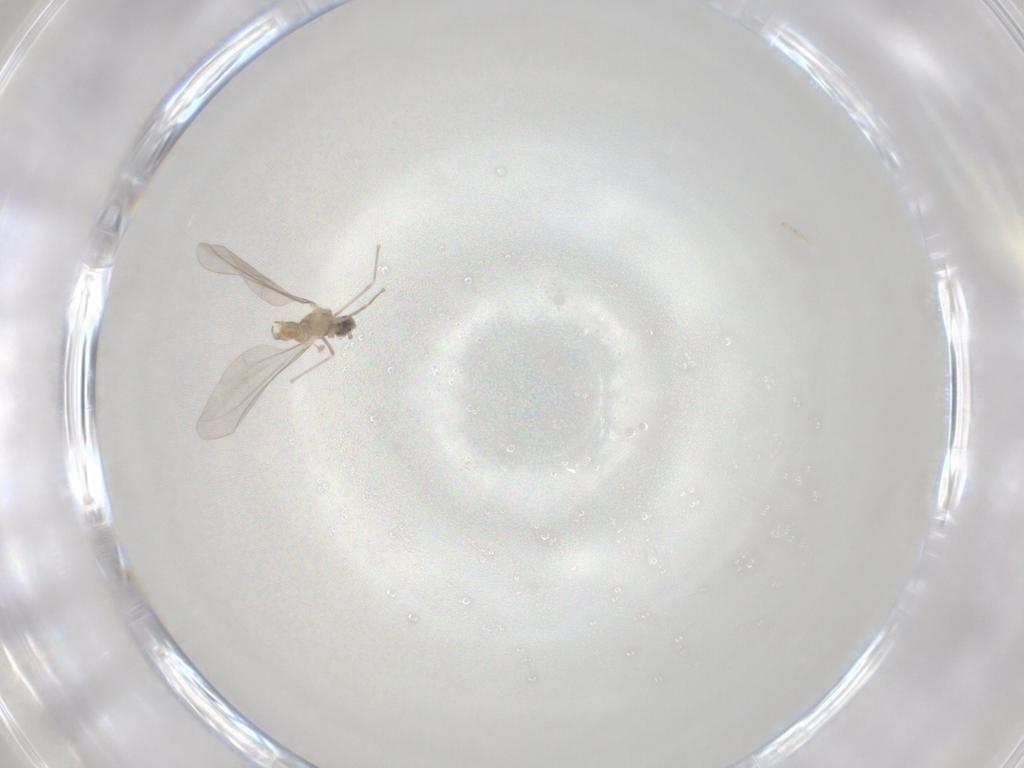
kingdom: Animalia
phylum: Arthropoda
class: Insecta
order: Diptera
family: Cecidomyiidae
